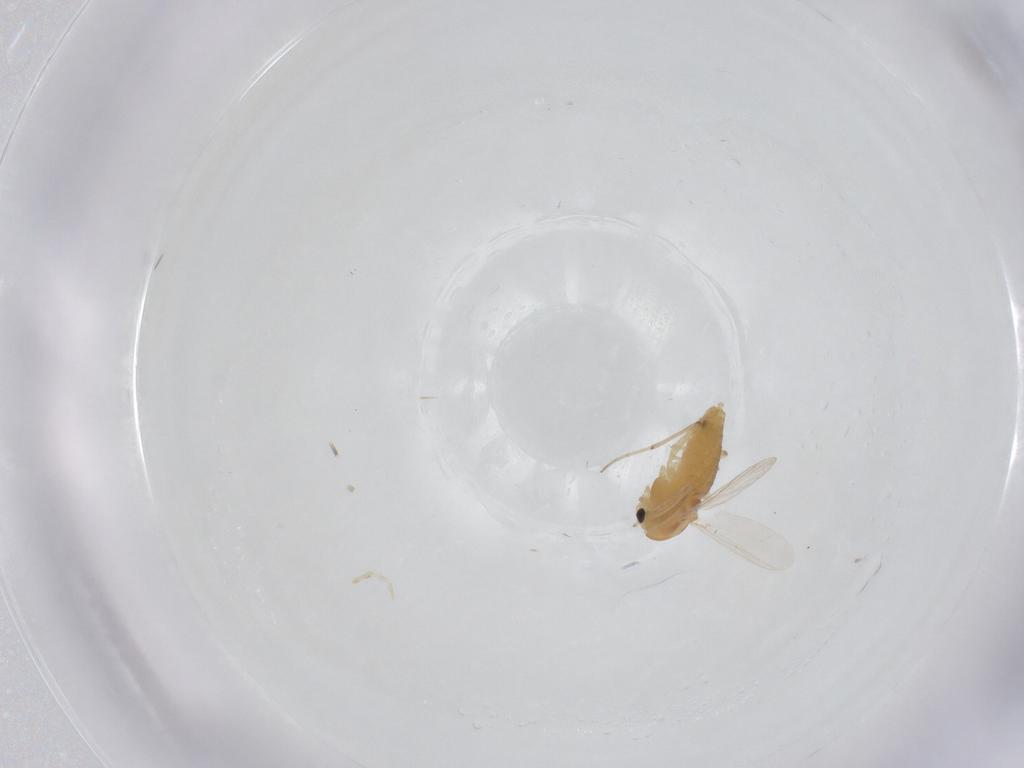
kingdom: Animalia
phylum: Arthropoda
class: Insecta
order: Diptera
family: Chironomidae
